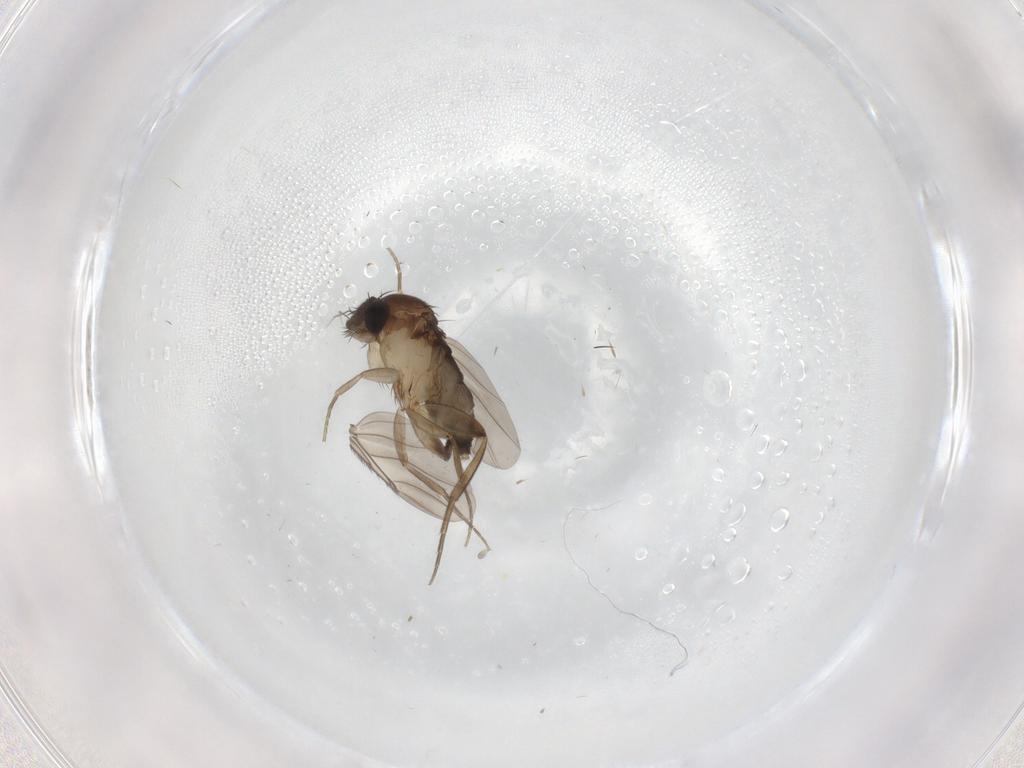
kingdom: Animalia
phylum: Arthropoda
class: Insecta
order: Diptera
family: Phoridae
